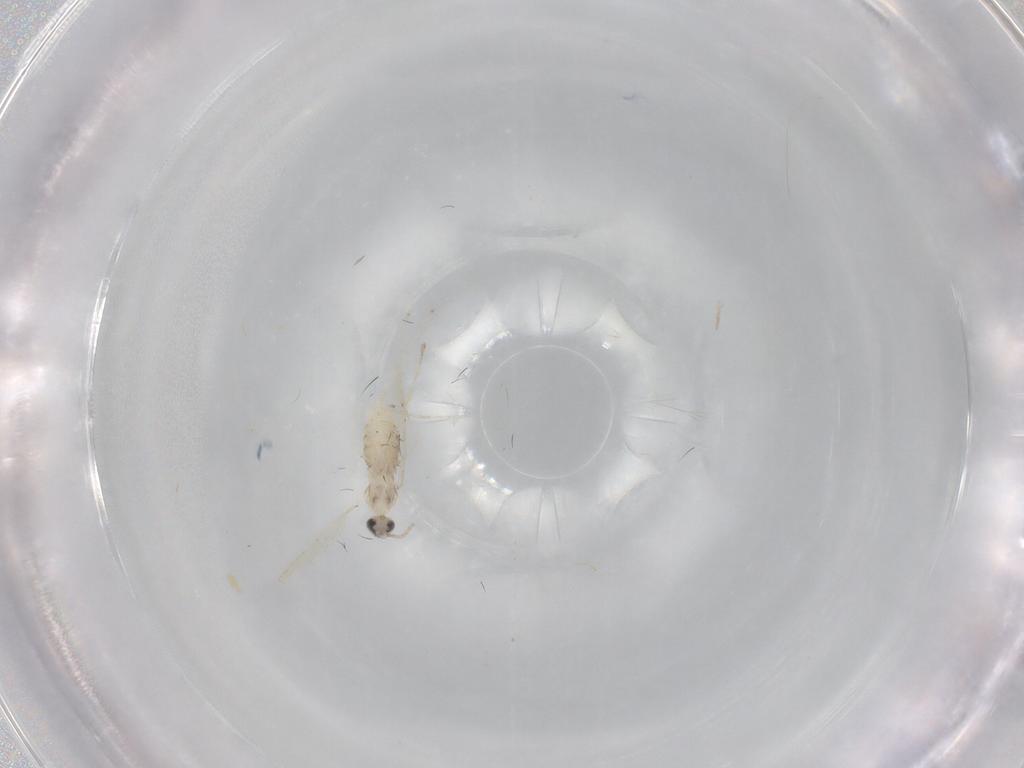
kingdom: Animalia
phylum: Arthropoda
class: Insecta
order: Diptera
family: Cecidomyiidae
